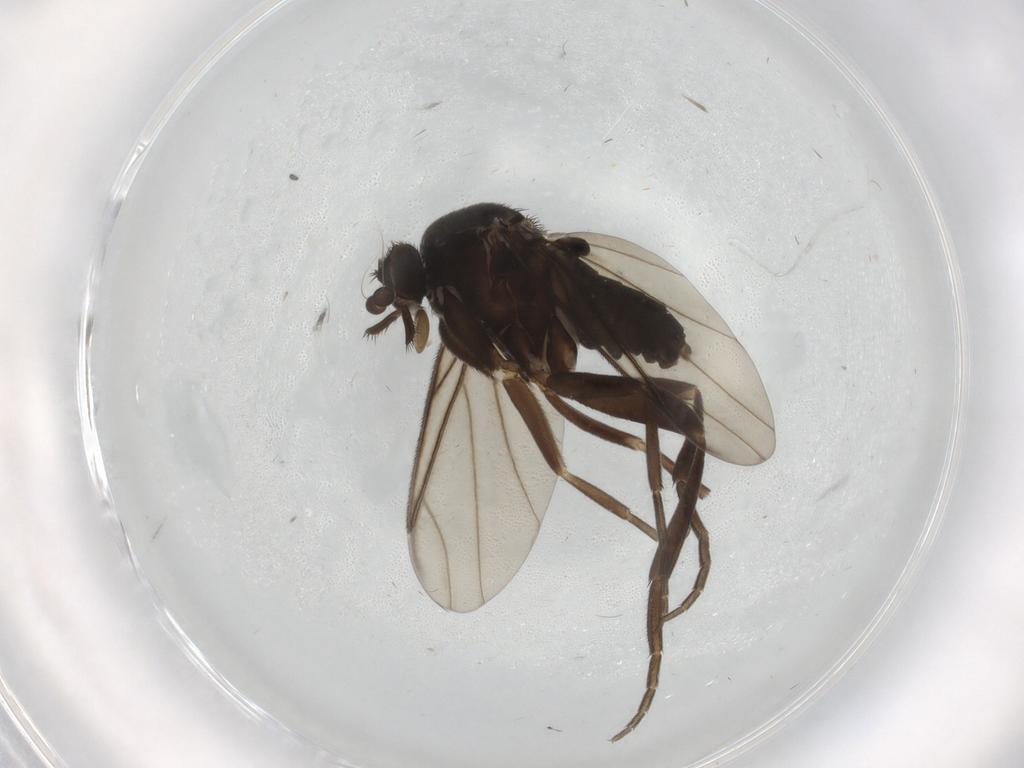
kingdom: Animalia
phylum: Arthropoda
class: Insecta
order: Diptera
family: Phoridae
